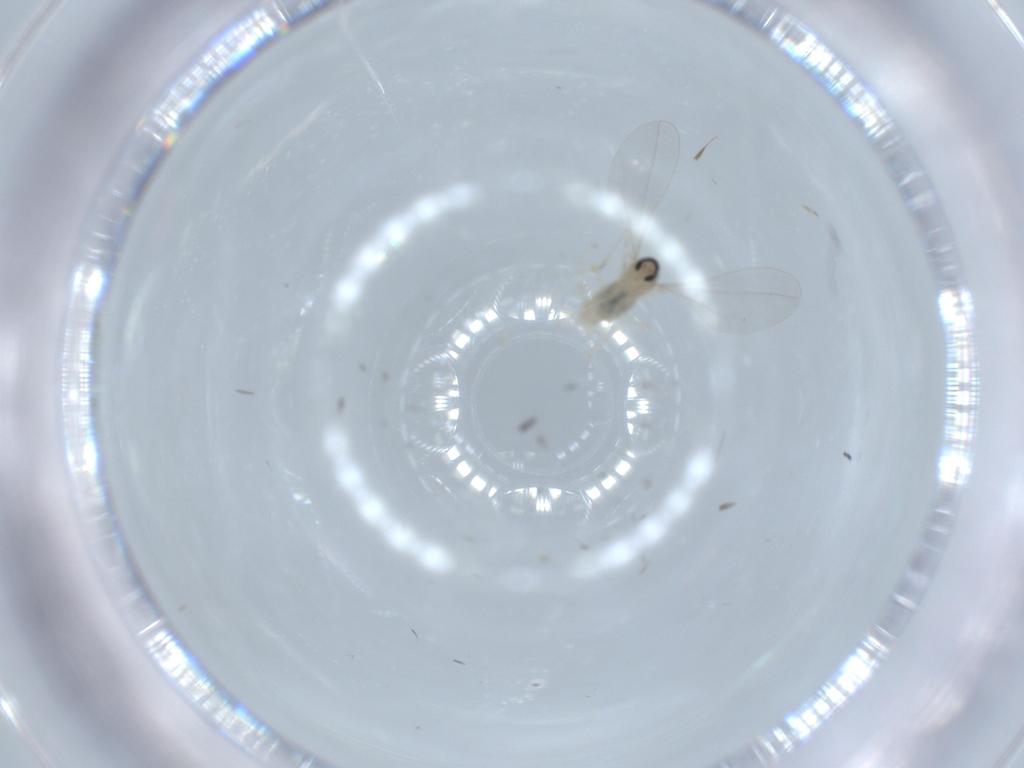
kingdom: Animalia
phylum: Arthropoda
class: Insecta
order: Diptera
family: Cecidomyiidae
